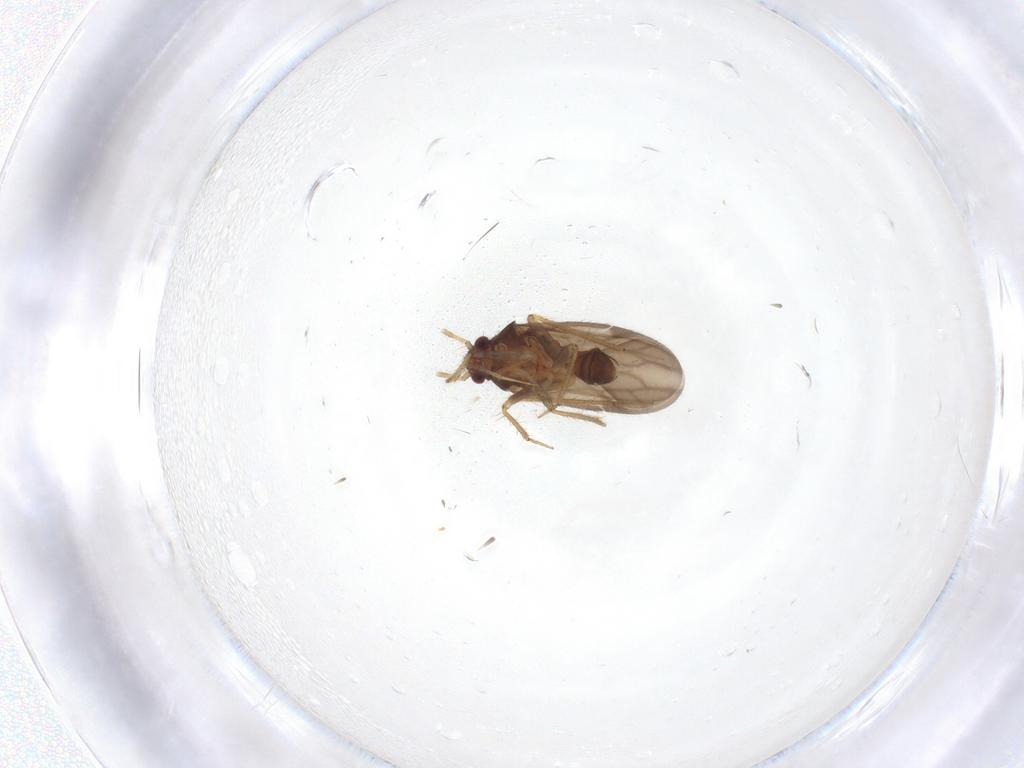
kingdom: Animalia
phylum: Arthropoda
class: Insecta
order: Hemiptera
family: Ceratocombidae
